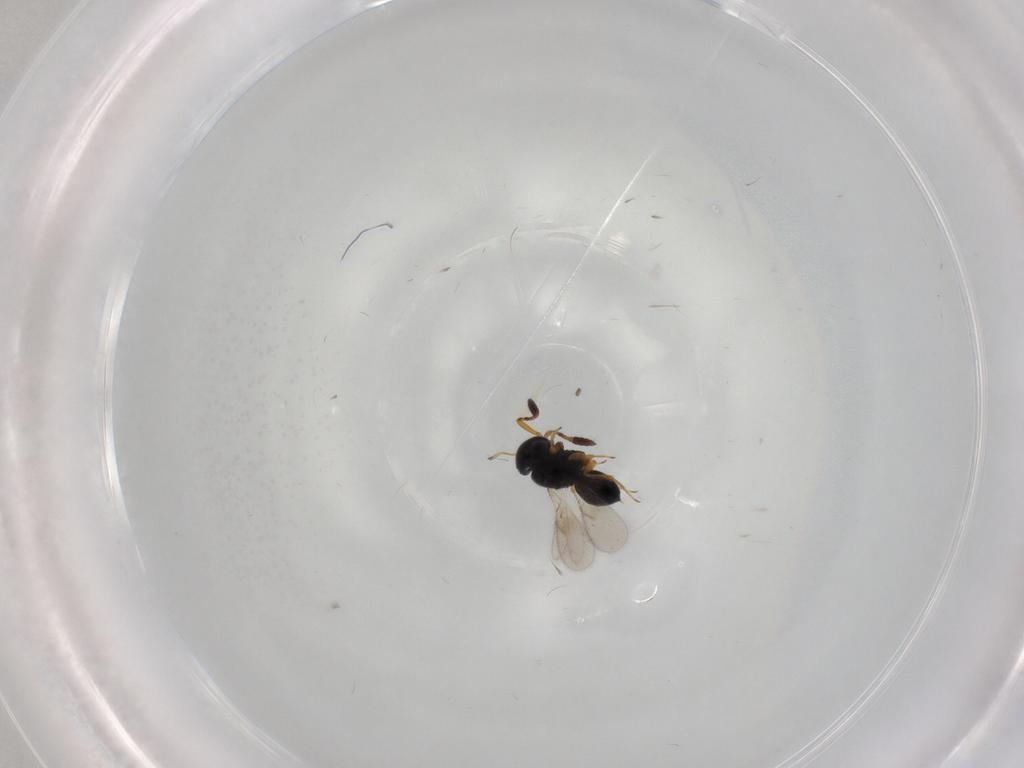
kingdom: Animalia
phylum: Arthropoda
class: Insecta
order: Hymenoptera
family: Scelionidae
